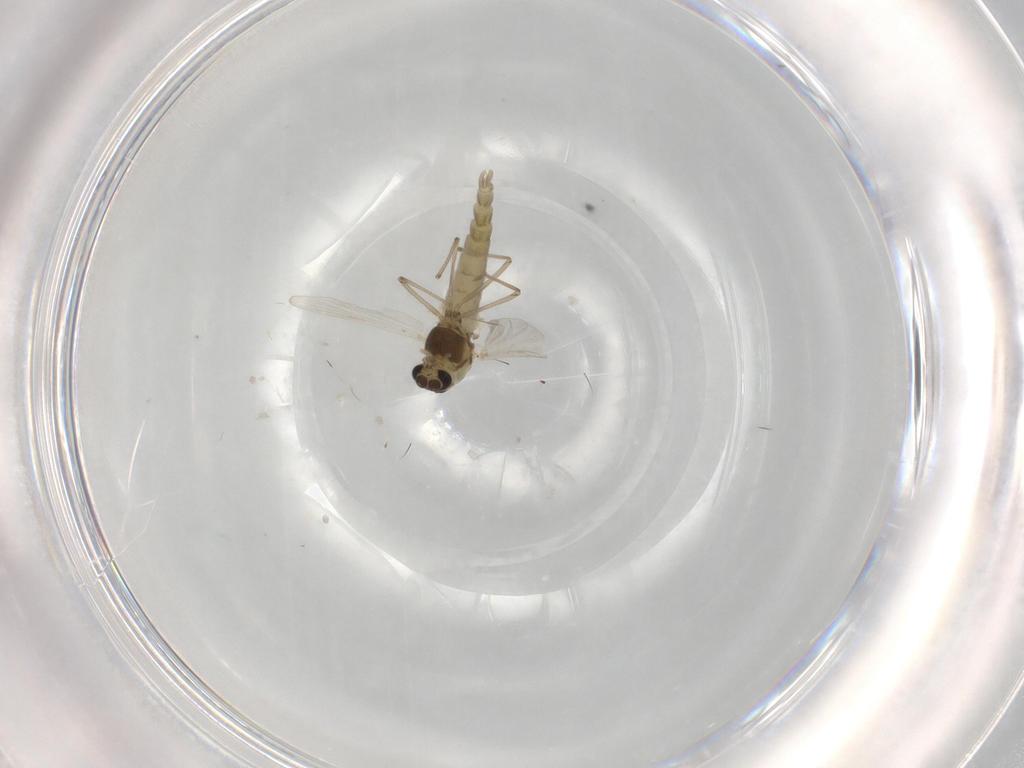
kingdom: Animalia
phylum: Arthropoda
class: Insecta
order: Diptera
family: Chironomidae
